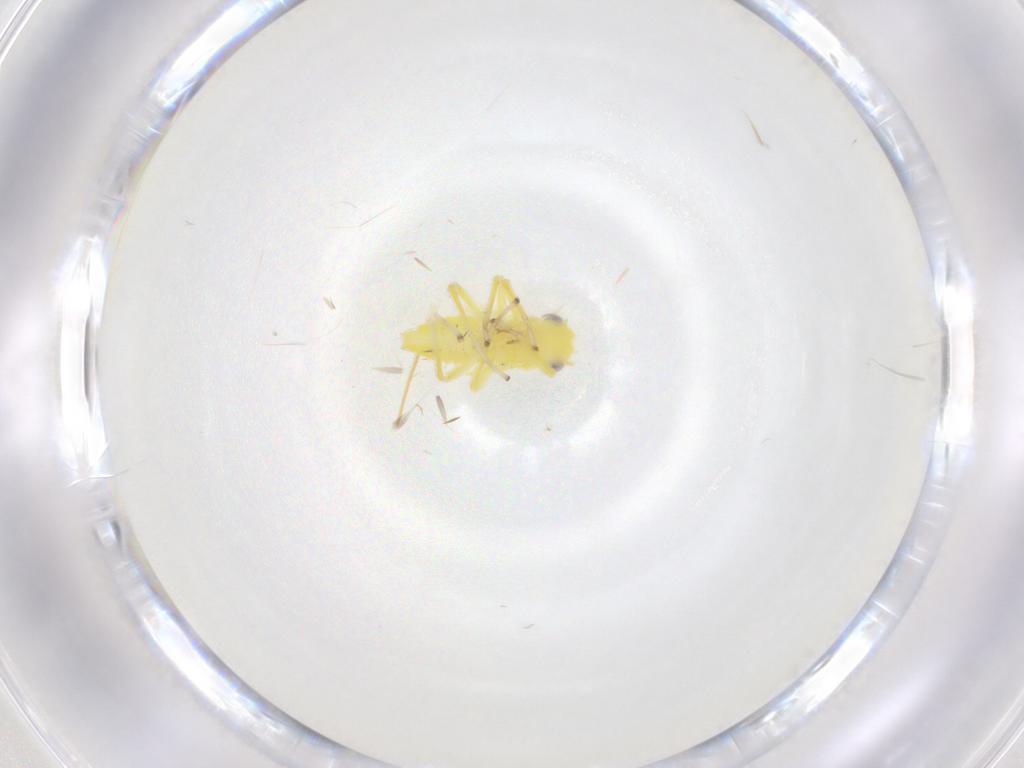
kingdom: Animalia
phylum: Arthropoda
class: Insecta
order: Hemiptera
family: Cicadellidae
